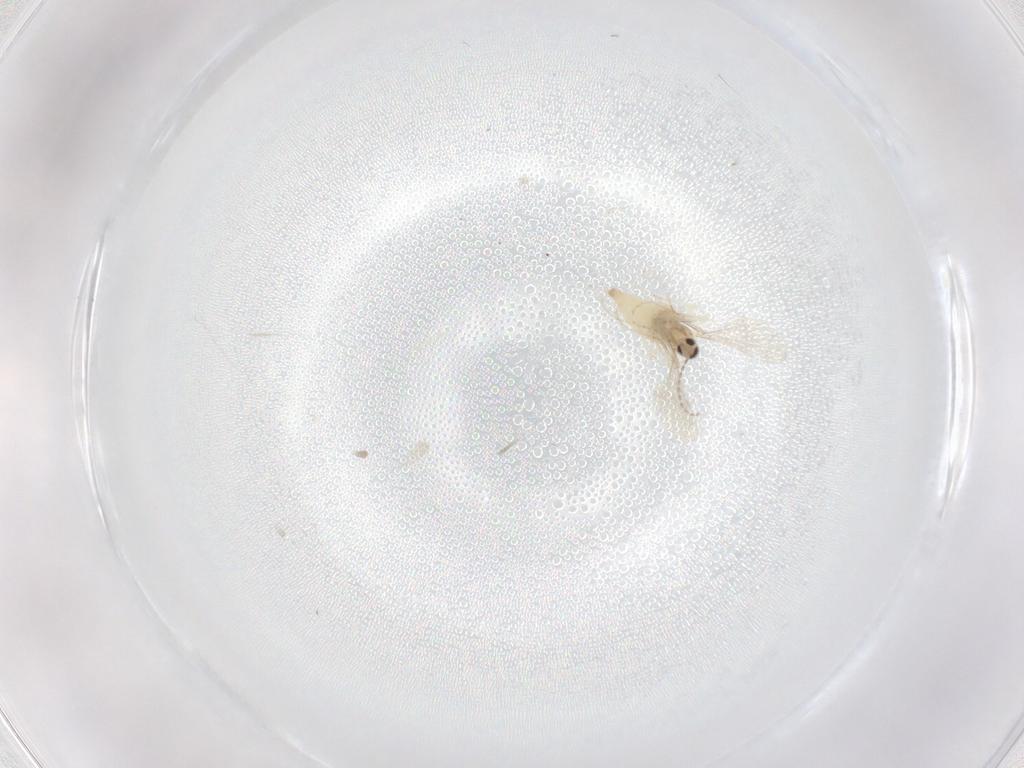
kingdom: Animalia
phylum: Arthropoda
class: Insecta
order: Diptera
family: Cecidomyiidae
